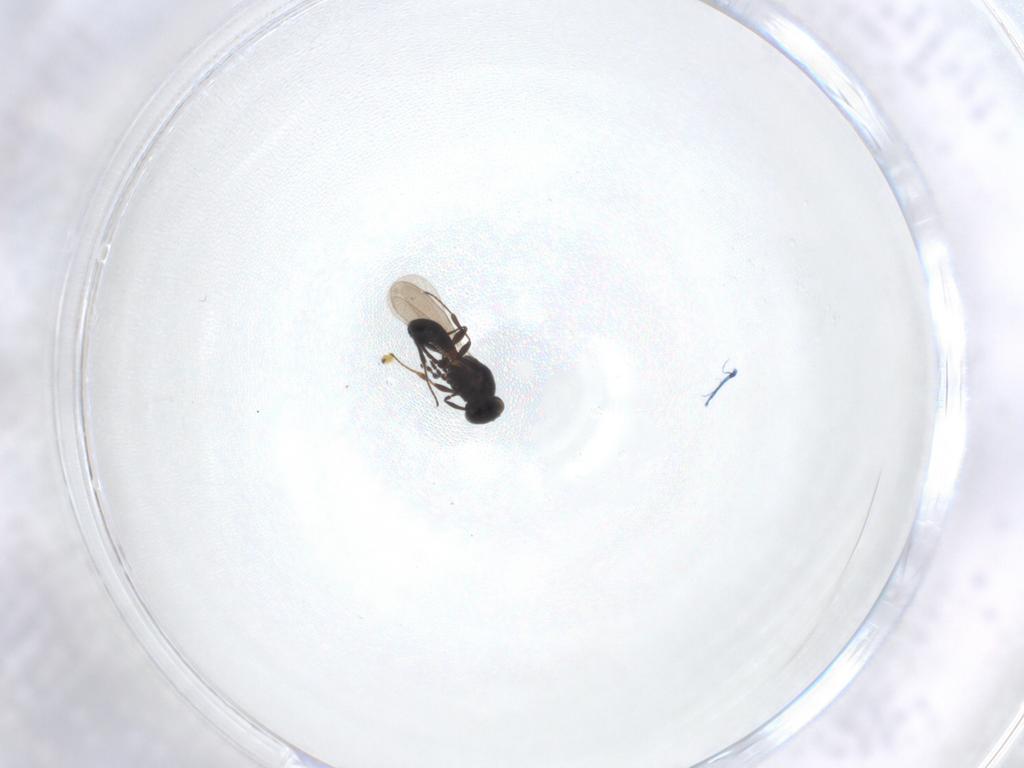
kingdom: Animalia
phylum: Arthropoda
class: Insecta
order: Hymenoptera
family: Platygastridae
